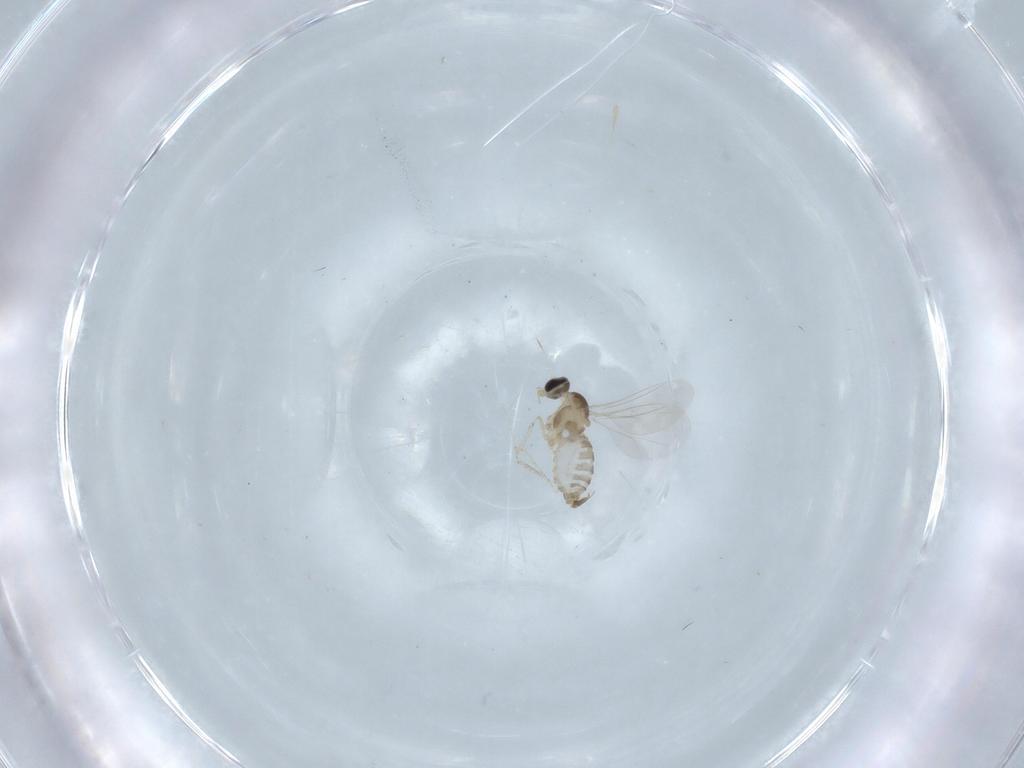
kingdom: Animalia
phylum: Arthropoda
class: Insecta
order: Diptera
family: Cecidomyiidae
